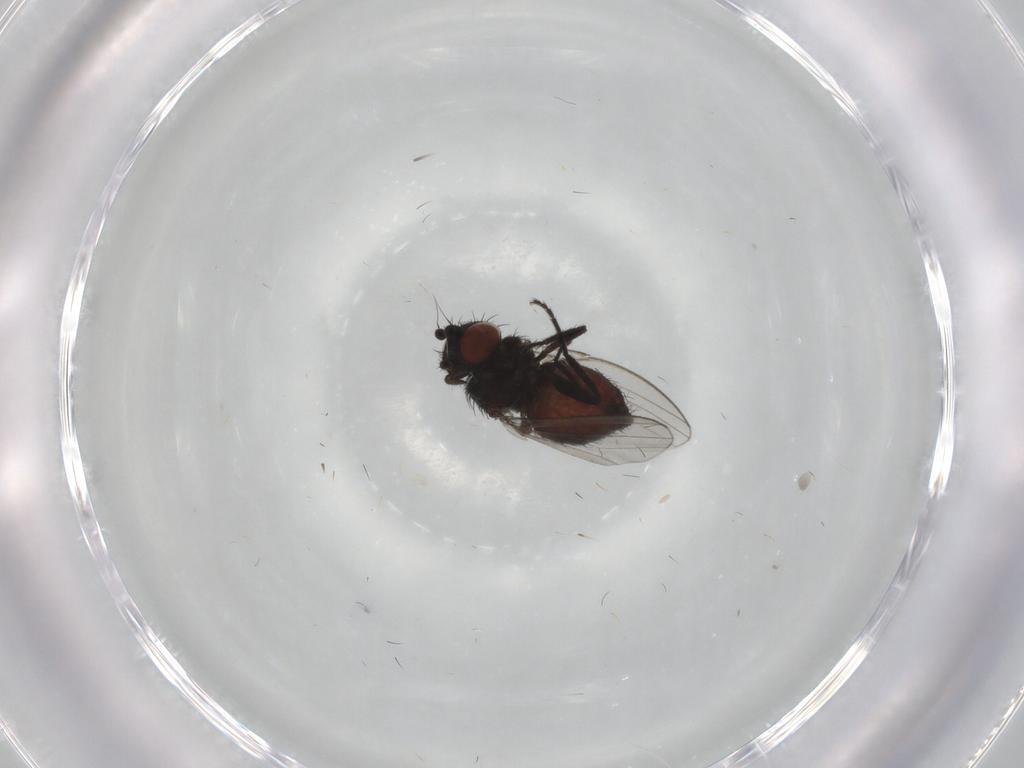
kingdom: Animalia
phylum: Arthropoda
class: Insecta
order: Diptera
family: Milichiidae
